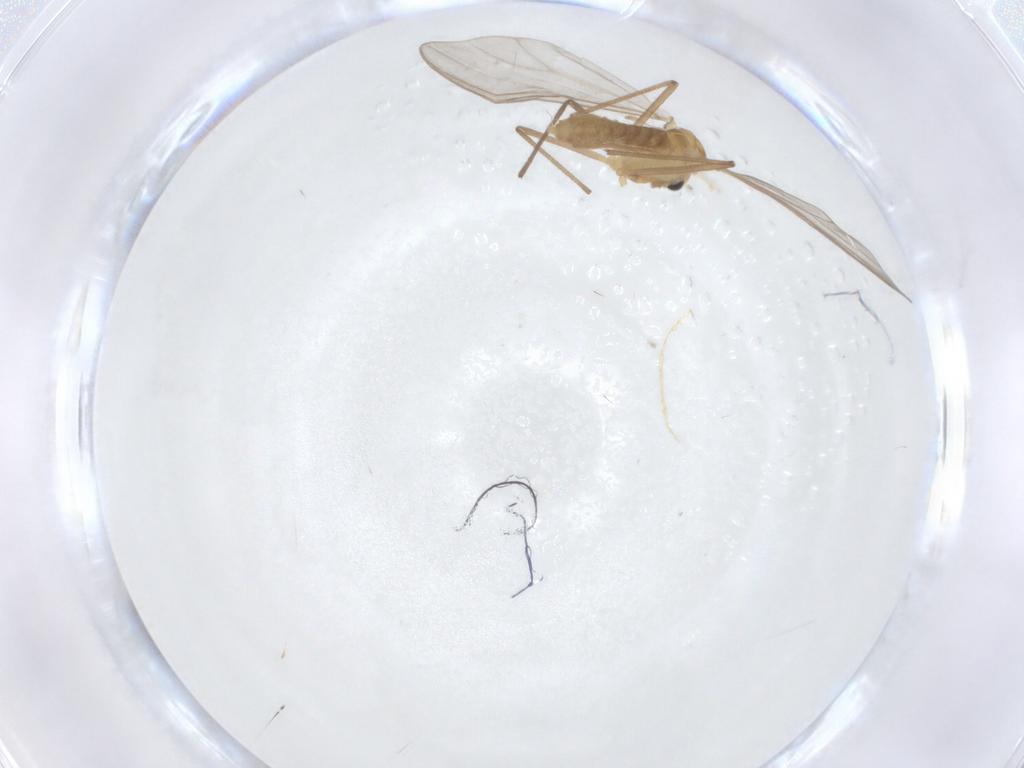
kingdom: Animalia
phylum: Arthropoda
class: Insecta
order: Diptera
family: Chironomidae
